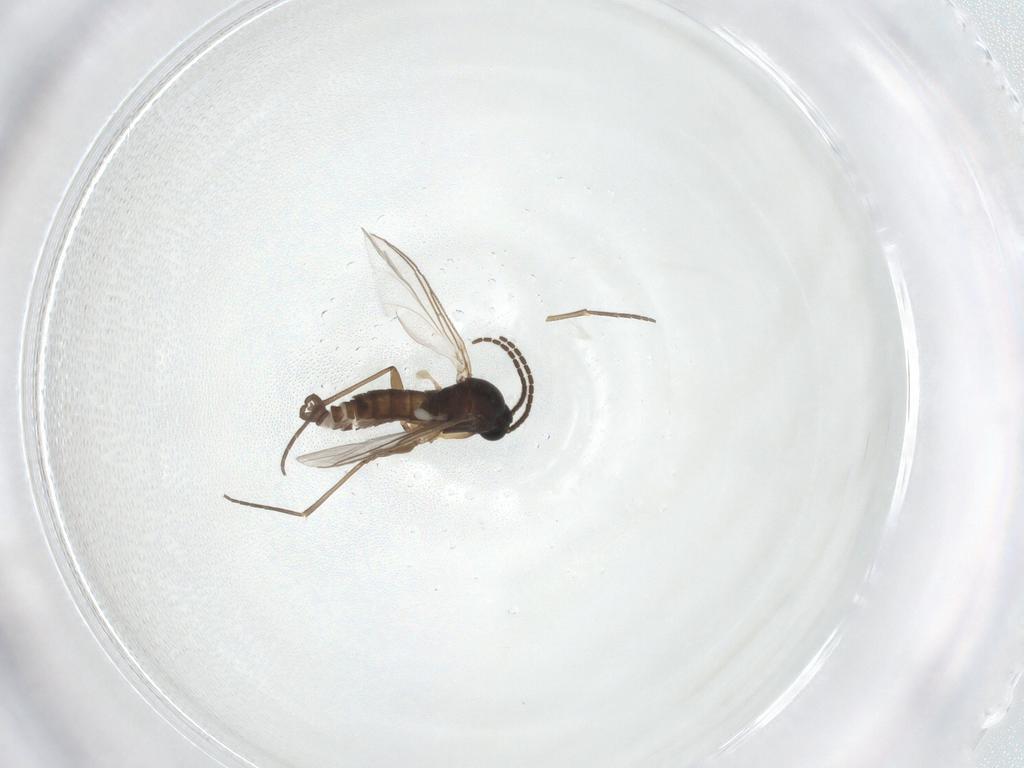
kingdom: Animalia
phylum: Arthropoda
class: Insecta
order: Diptera
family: Sciaridae
